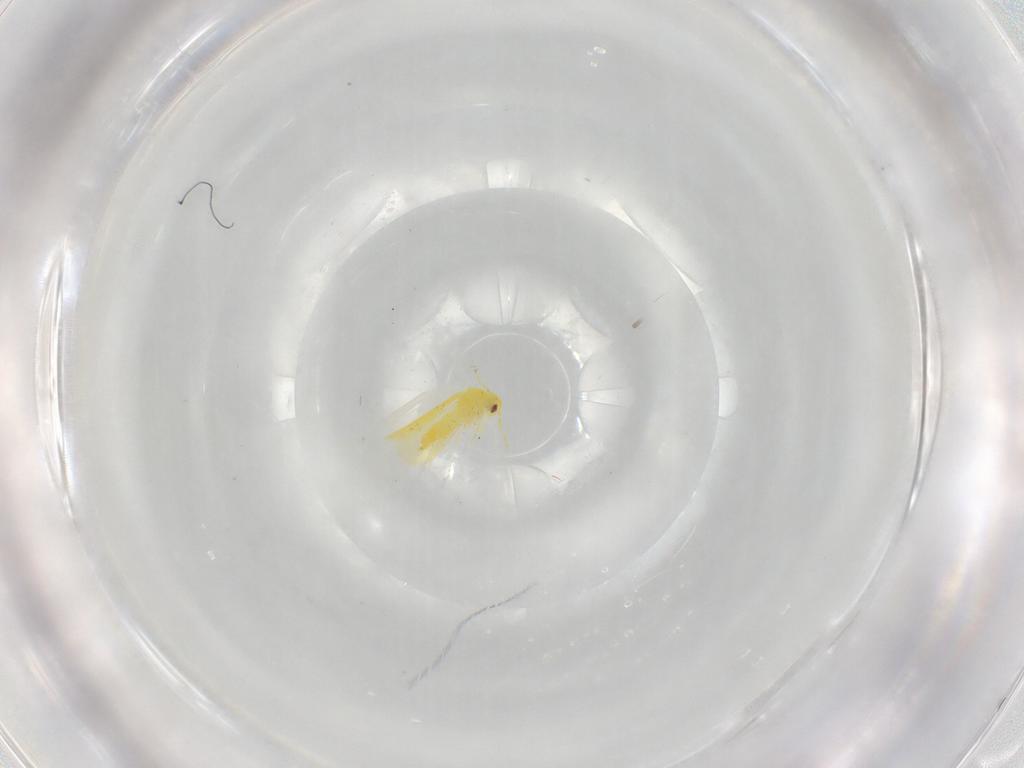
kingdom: Animalia
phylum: Arthropoda
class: Insecta
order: Hemiptera
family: Aleyrodidae
